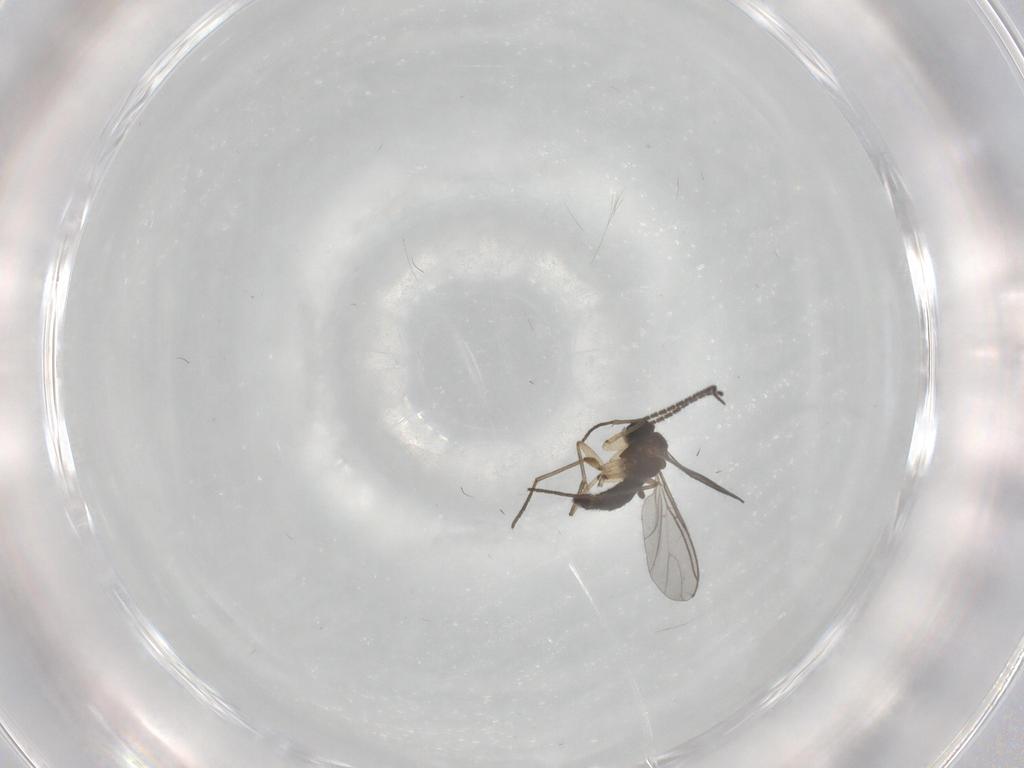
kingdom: Animalia
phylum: Arthropoda
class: Insecta
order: Diptera
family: Sciaridae
